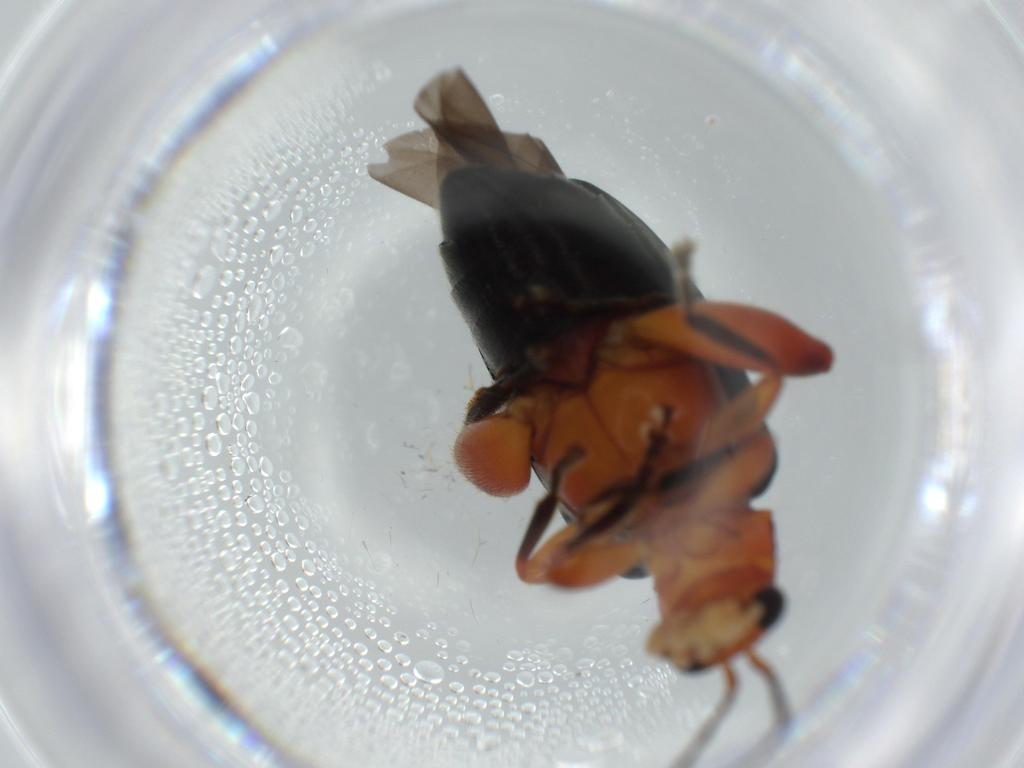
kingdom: Animalia
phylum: Arthropoda
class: Insecta
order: Coleoptera
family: Chrysomelidae
